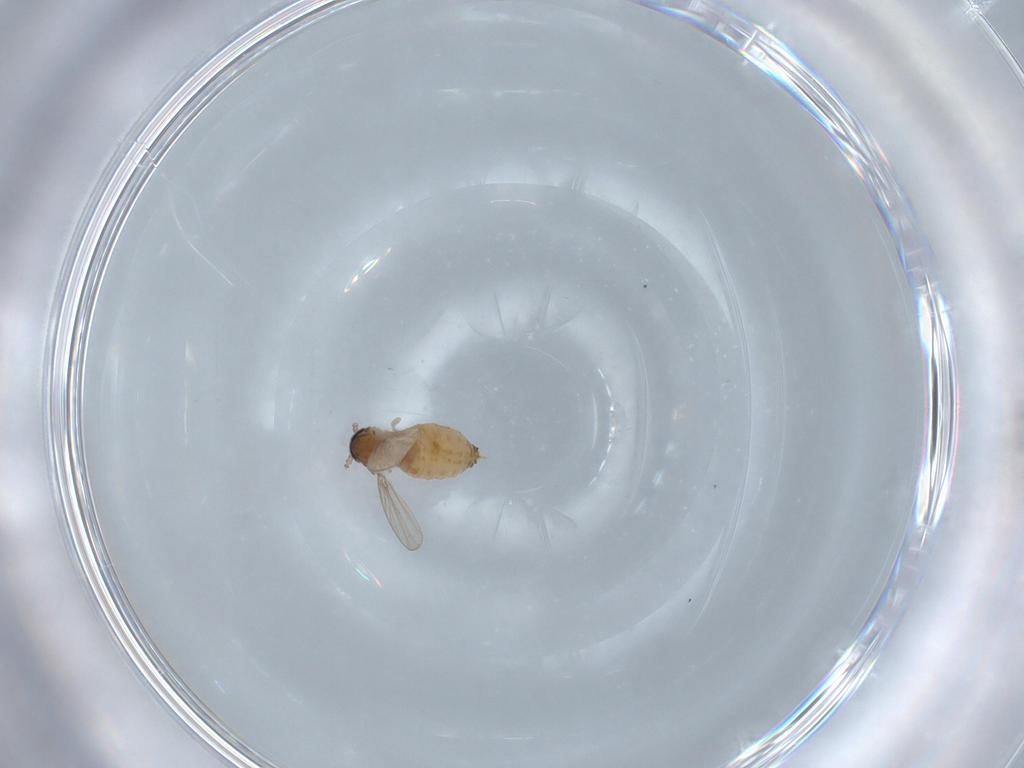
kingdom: Animalia
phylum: Arthropoda
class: Insecta
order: Diptera
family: Psychodidae
